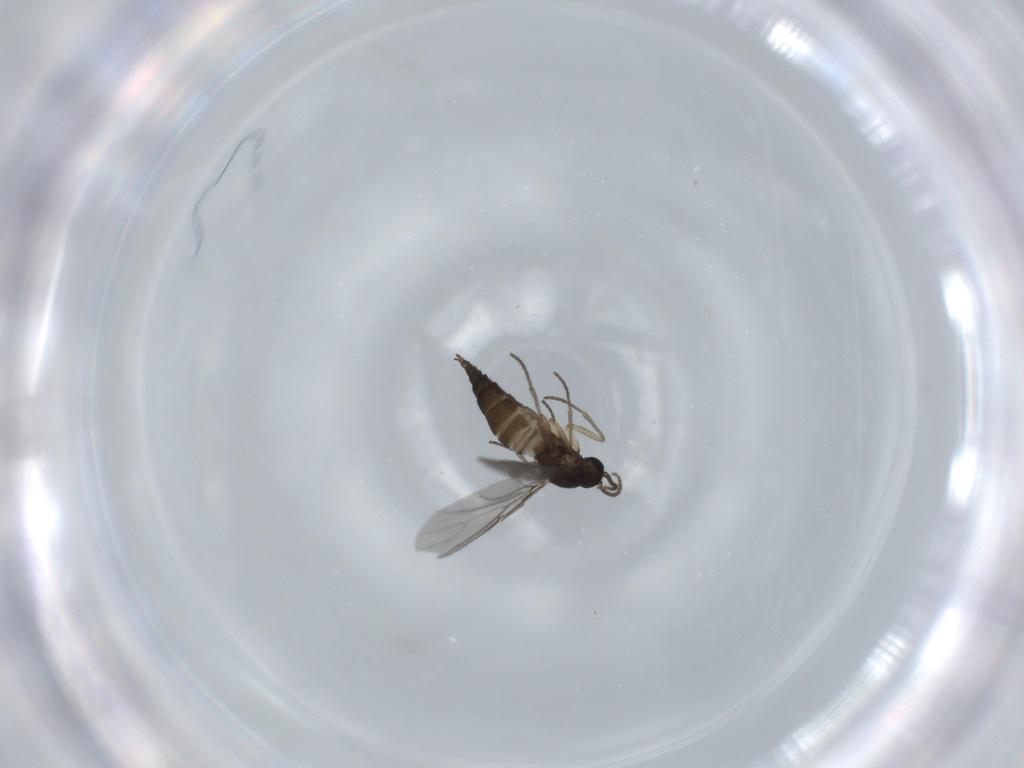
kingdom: Animalia
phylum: Arthropoda
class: Insecta
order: Diptera
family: Sciaridae
